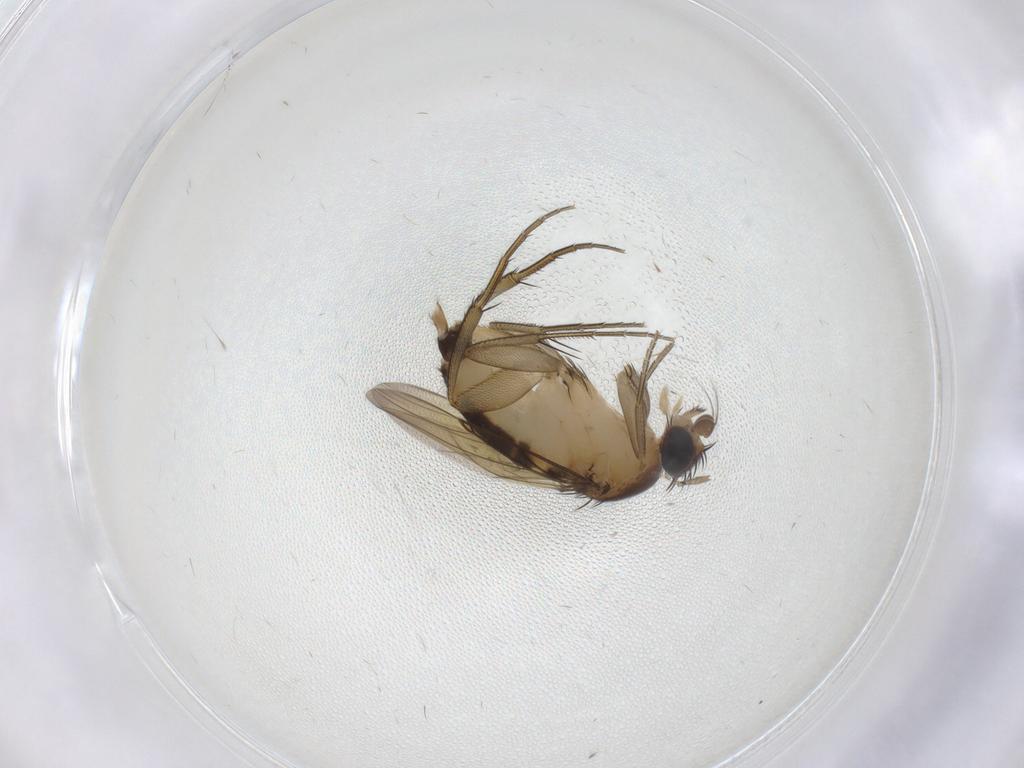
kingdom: Animalia
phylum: Arthropoda
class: Insecta
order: Diptera
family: Phoridae
